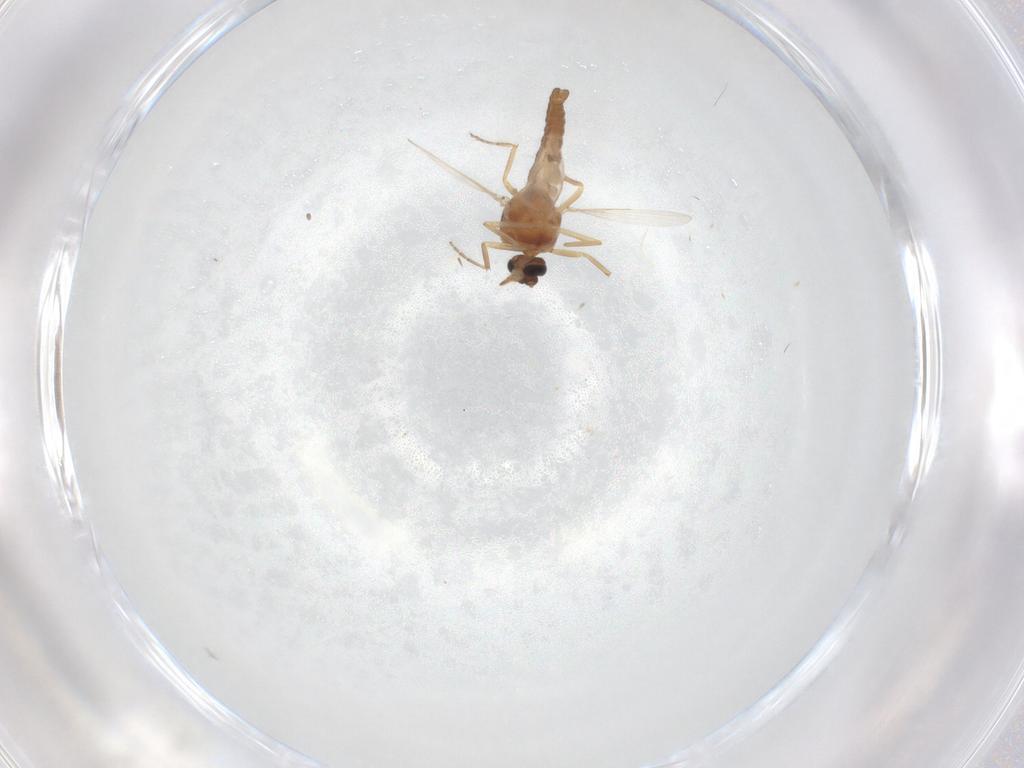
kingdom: Animalia
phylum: Arthropoda
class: Insecta
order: Diptera
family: Ceratopogonidae
